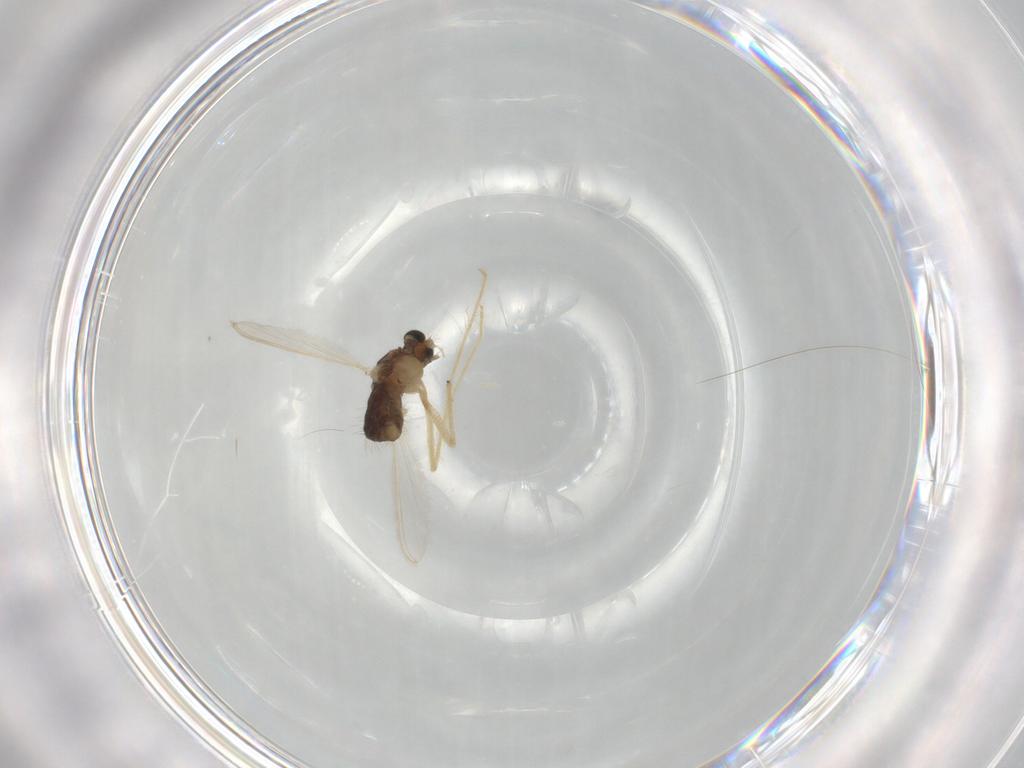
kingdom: Animalia
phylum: Arthropoda
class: Insecta
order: Diptera
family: Chironomidae
